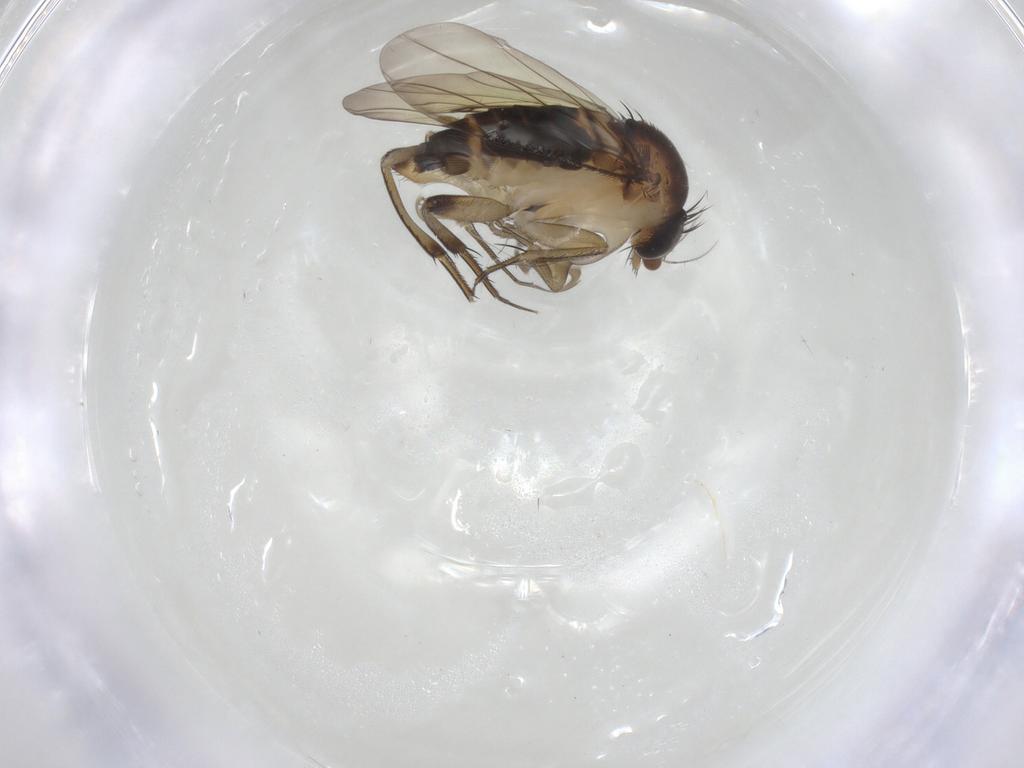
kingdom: Animalia
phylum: Arthropoda
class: Insecta
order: Diptera
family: Phoridae
